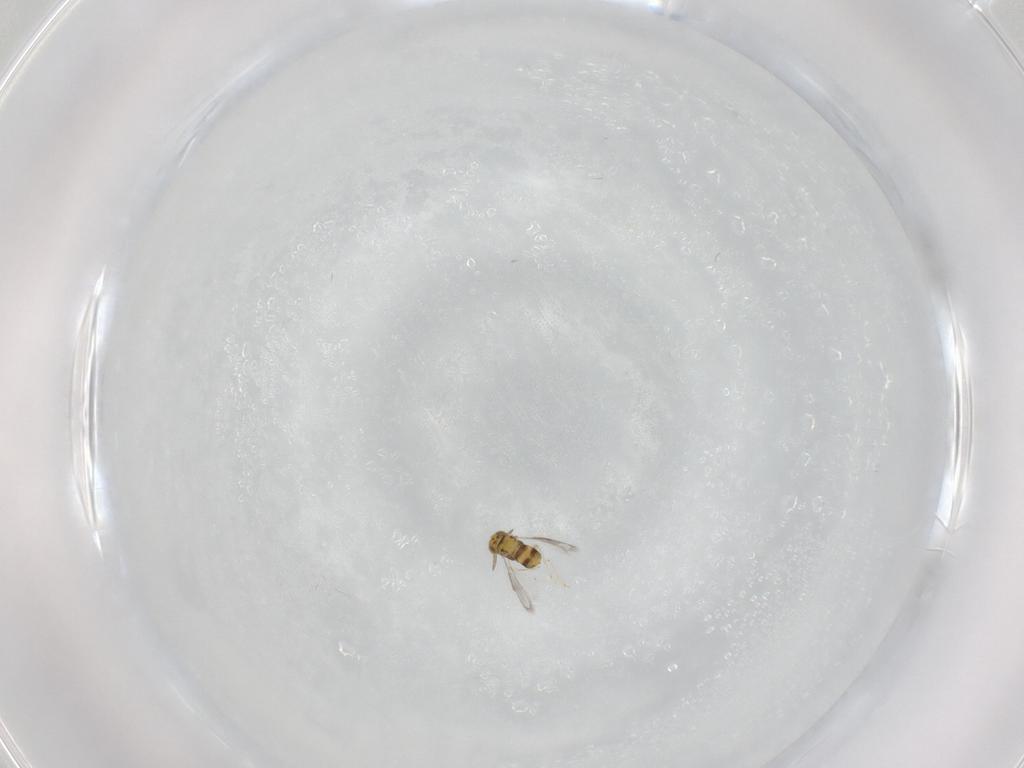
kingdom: Animalia
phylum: Arthropoda
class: Insecta
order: Hymenoptera
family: Aphelinidae
